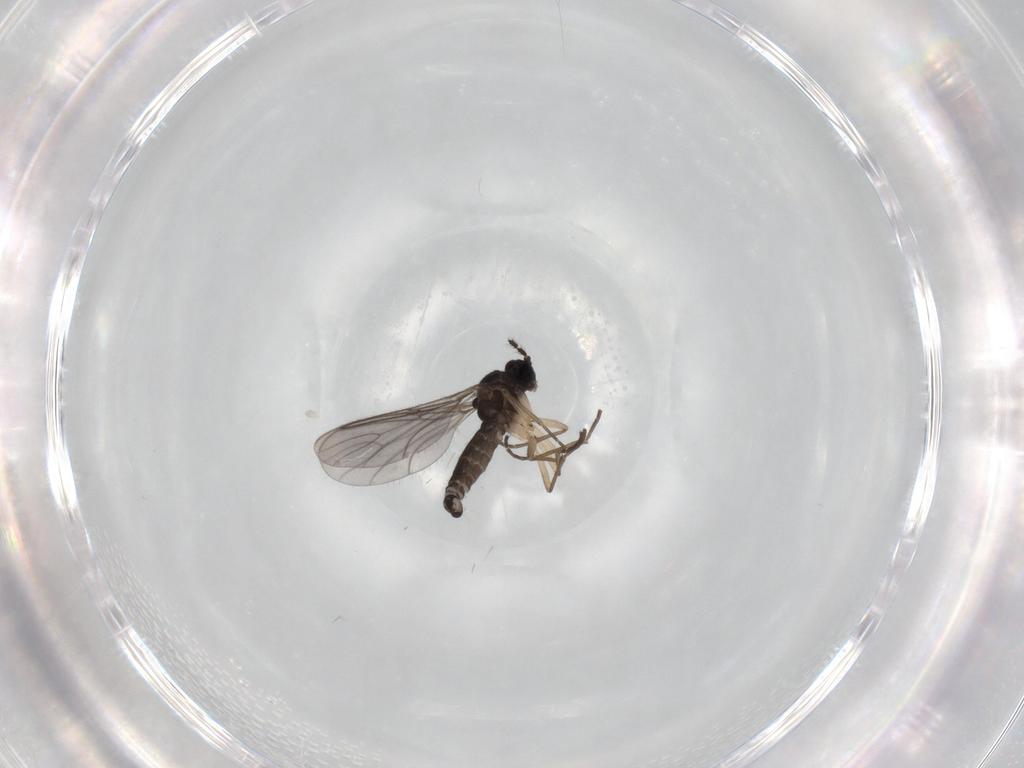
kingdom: Animalia
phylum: Arthropoda
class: Insecta
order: Diptera
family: Sciaridae
